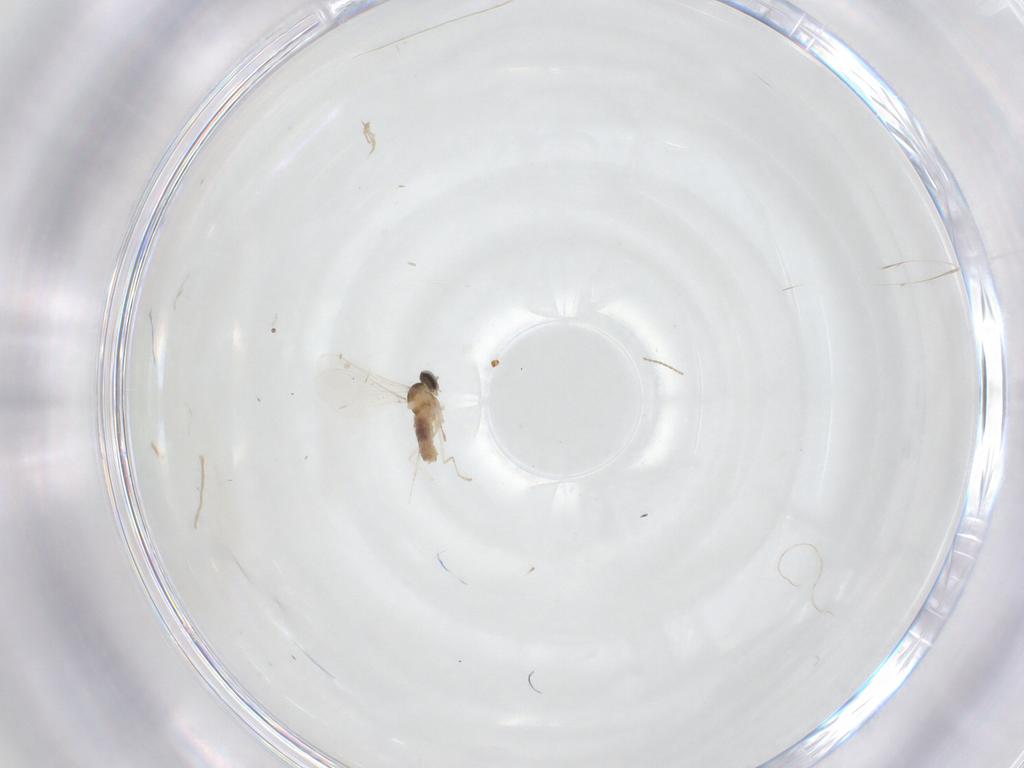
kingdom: Animalia
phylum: Arthropoda
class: Insecta
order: Diptera
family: Cecidomyiidae
